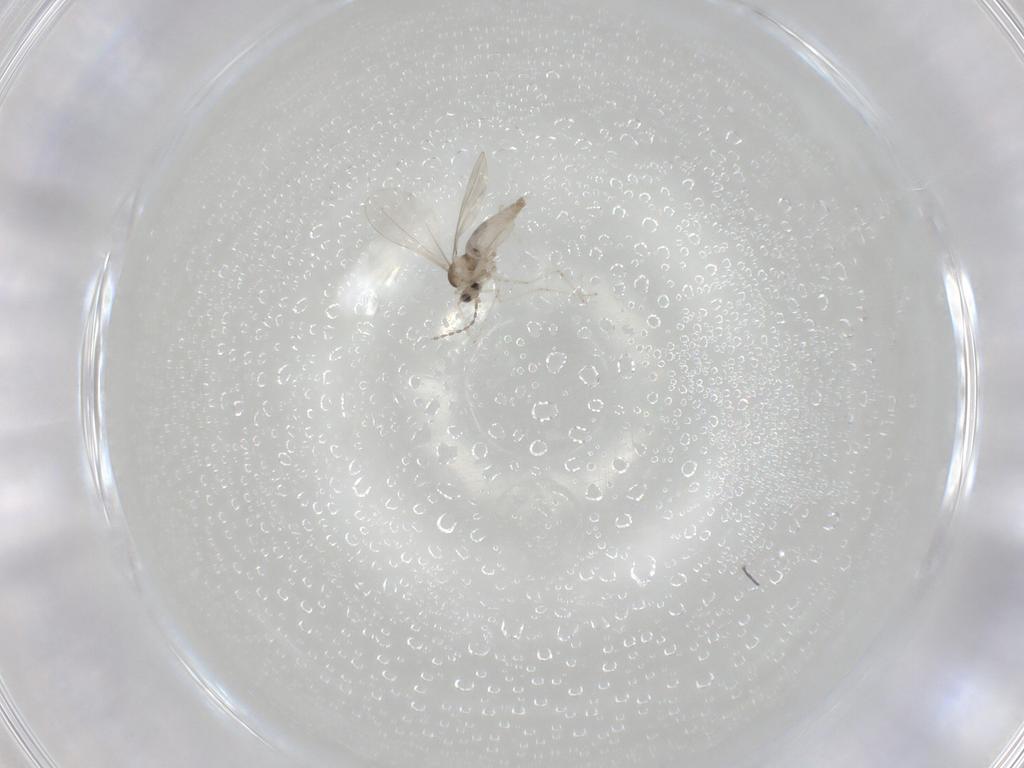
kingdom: Animalia
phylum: Arthropoda
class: Insecta
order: Diptera
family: Cecidomyiidae
